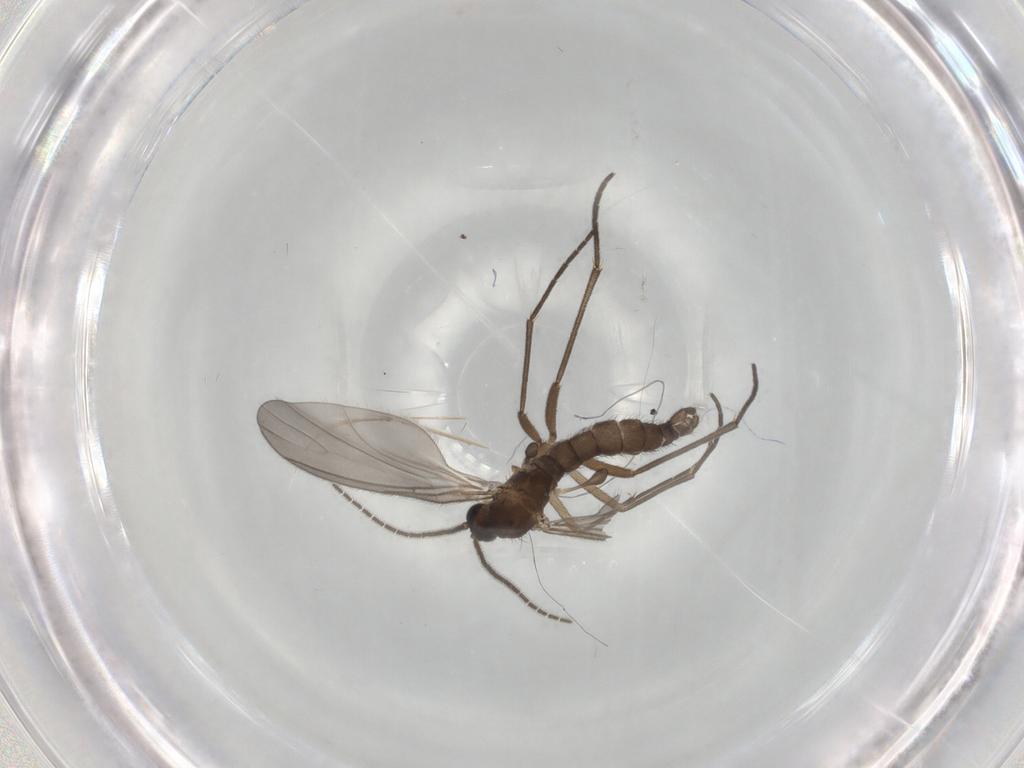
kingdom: Animalia
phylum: Arthropoda
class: Insecta
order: Diptera
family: Sciaridae
